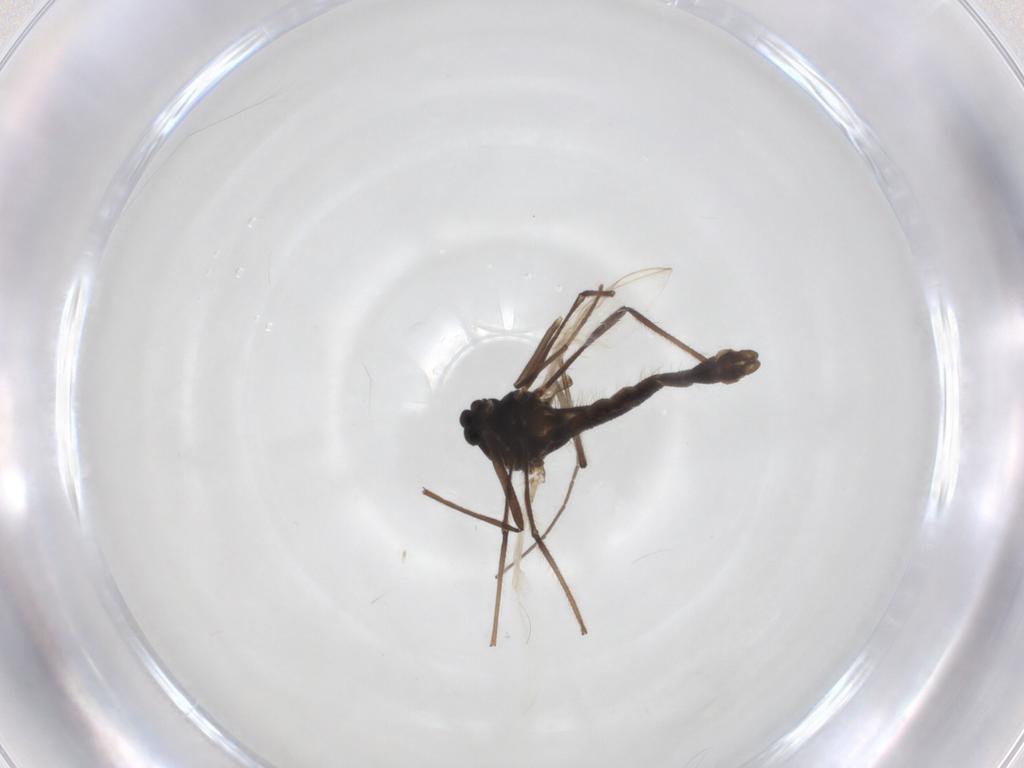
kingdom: Animalia
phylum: Arthropoda
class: Insecta
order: Diptera
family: Chironomidae
